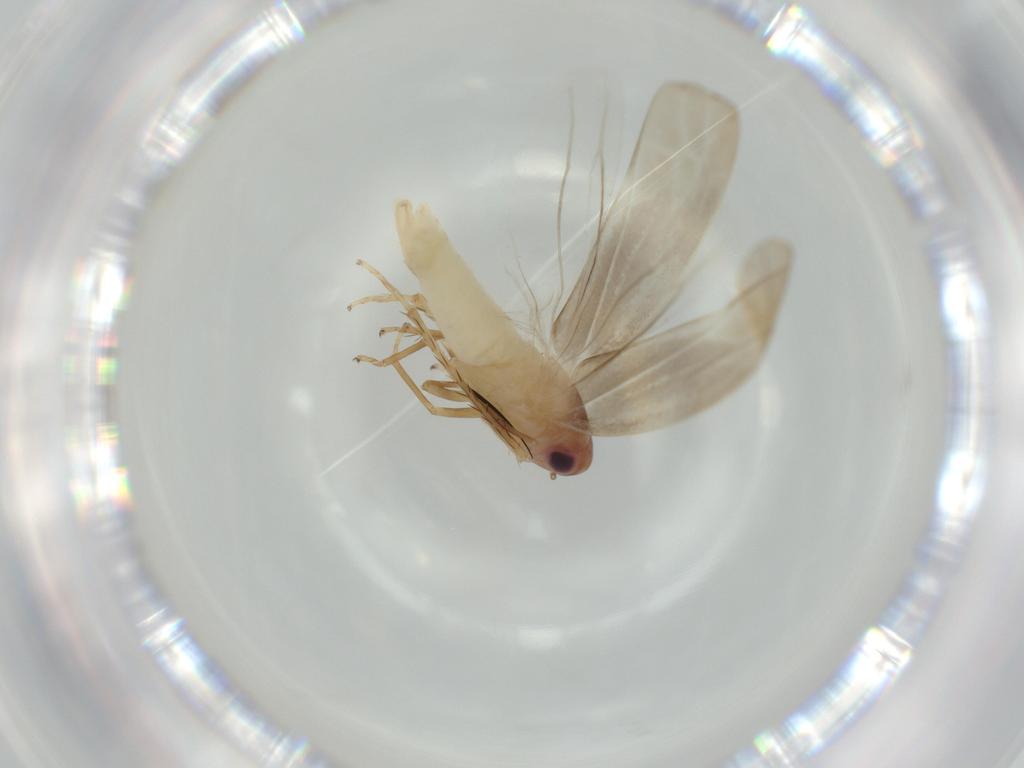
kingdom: Animalia
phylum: Arthropoda
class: Insecta
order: Hemiptera
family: Cicadellidae
